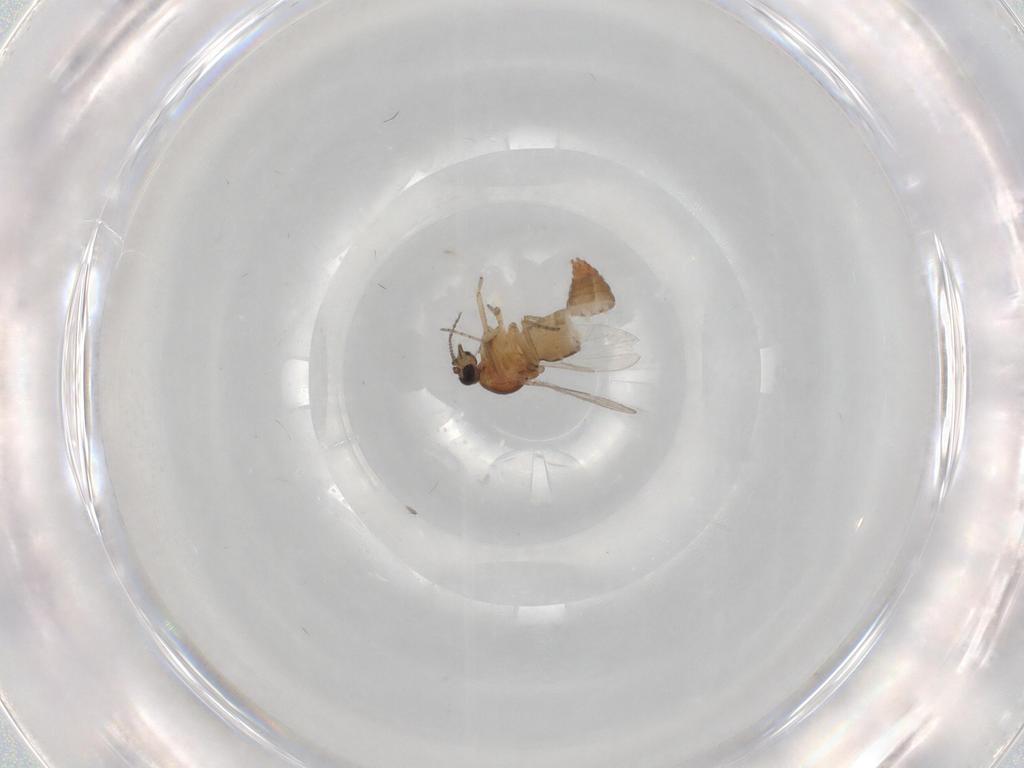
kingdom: Animalia
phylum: Arthropoda
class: Insecta
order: Diptera
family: Ceratopogonidae
